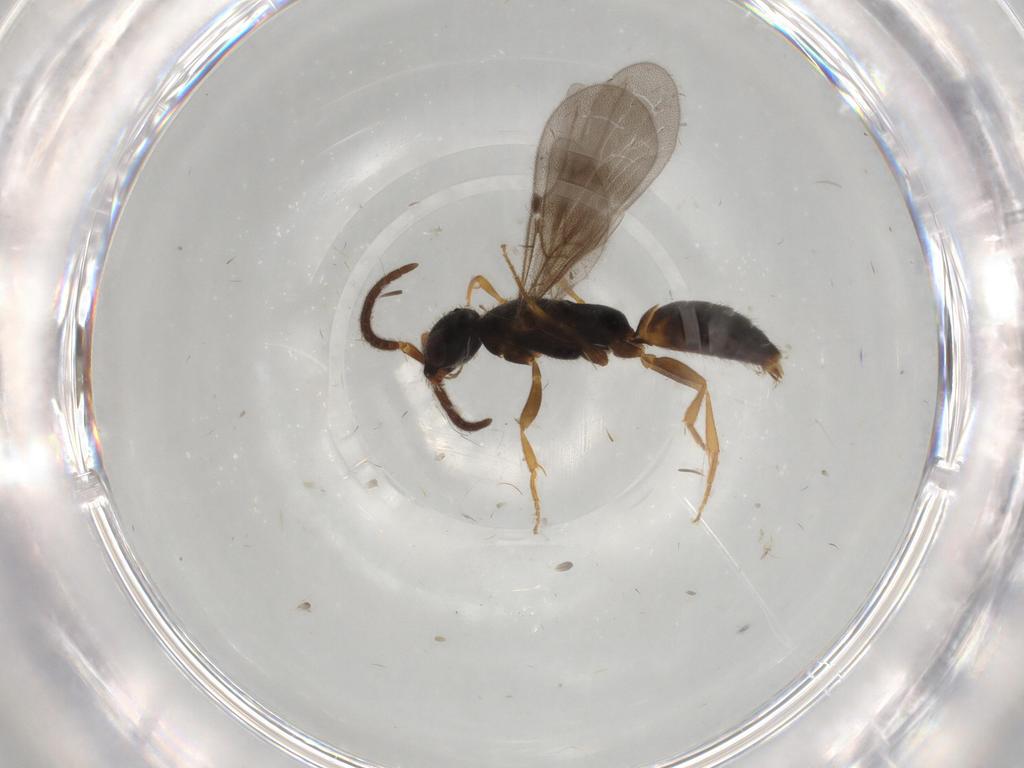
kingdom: Animalia
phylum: Arthropoda
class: Insecta
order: Hymenoptera
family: Bethylidae
